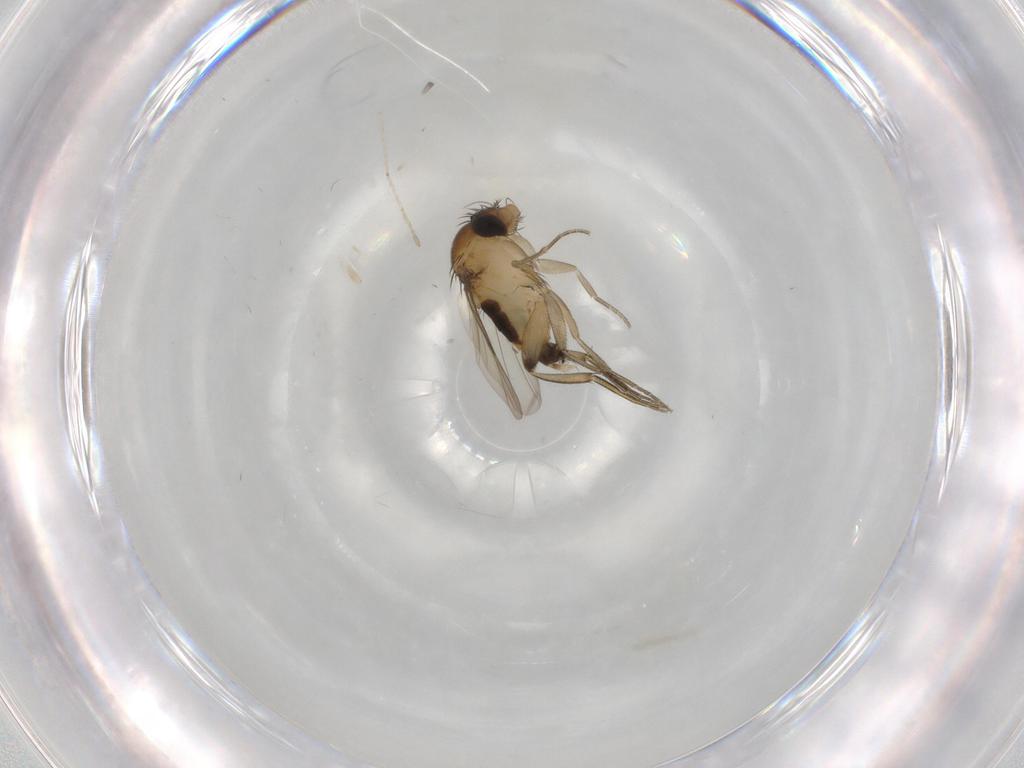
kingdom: Animalia
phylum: Arthropoda
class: Insecta
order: Diptera
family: Phoridae
